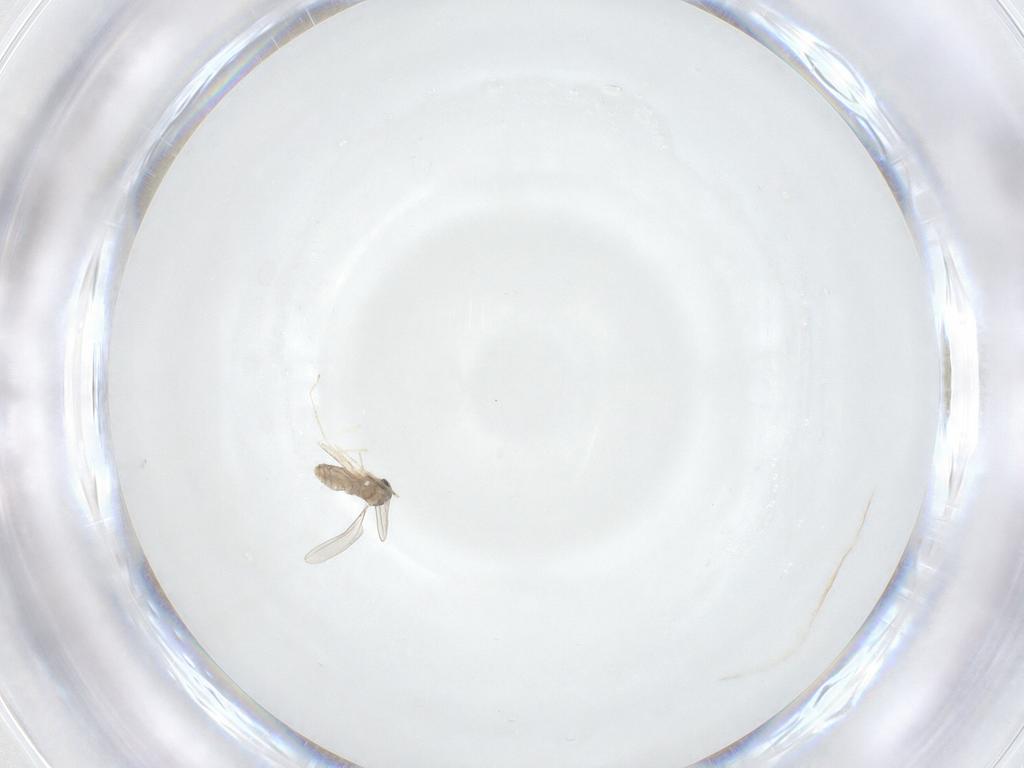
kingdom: Animalia
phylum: Arthropoda
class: Insecta
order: Diptera
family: Cecidomyiidae
